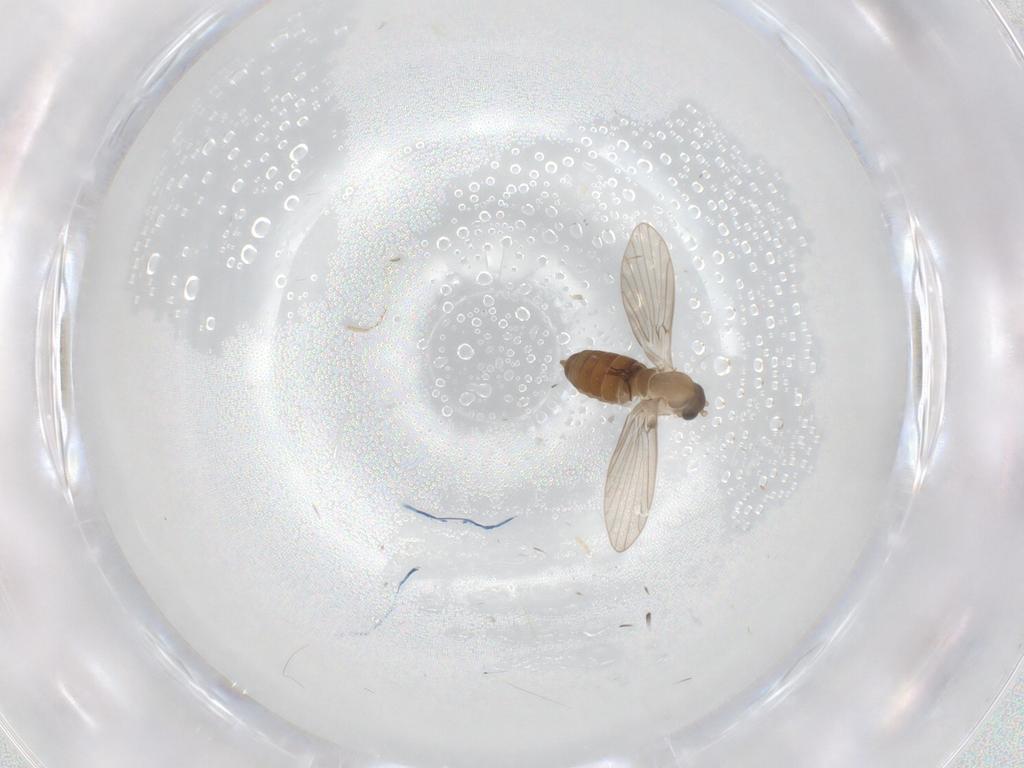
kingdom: Animalia
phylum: Arthropoda
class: Insecta
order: Diptera
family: Psychodidae
